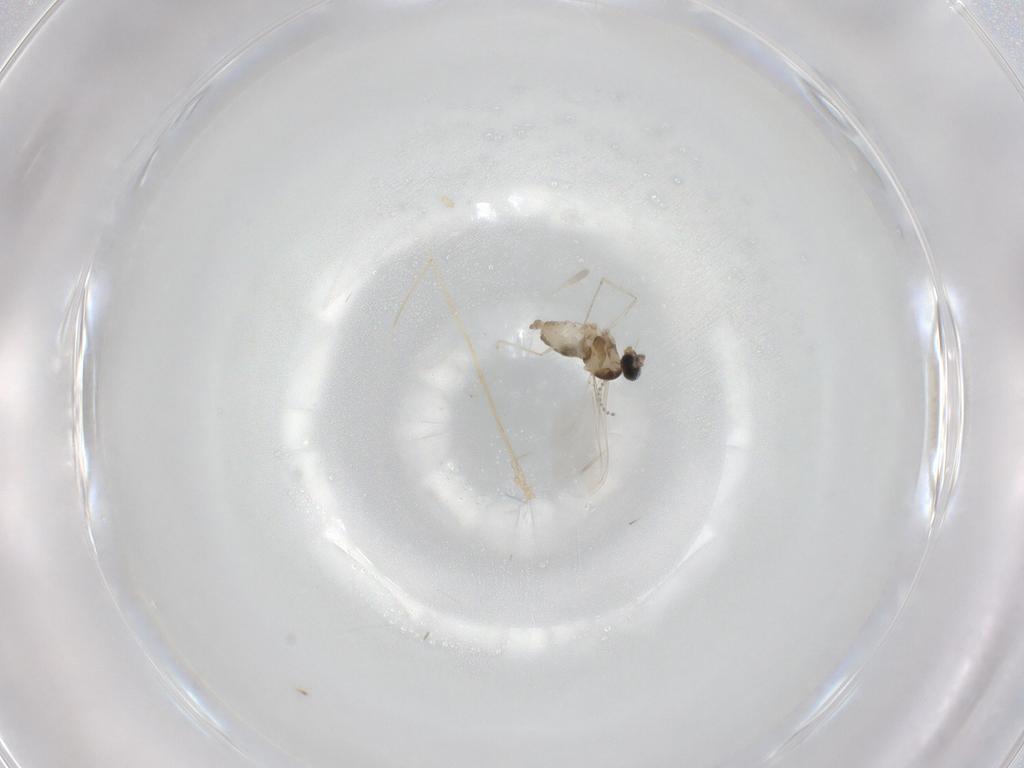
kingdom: Animalia
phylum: Arthropoda
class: Insecta
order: Diptera
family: Cecidomyiidae
